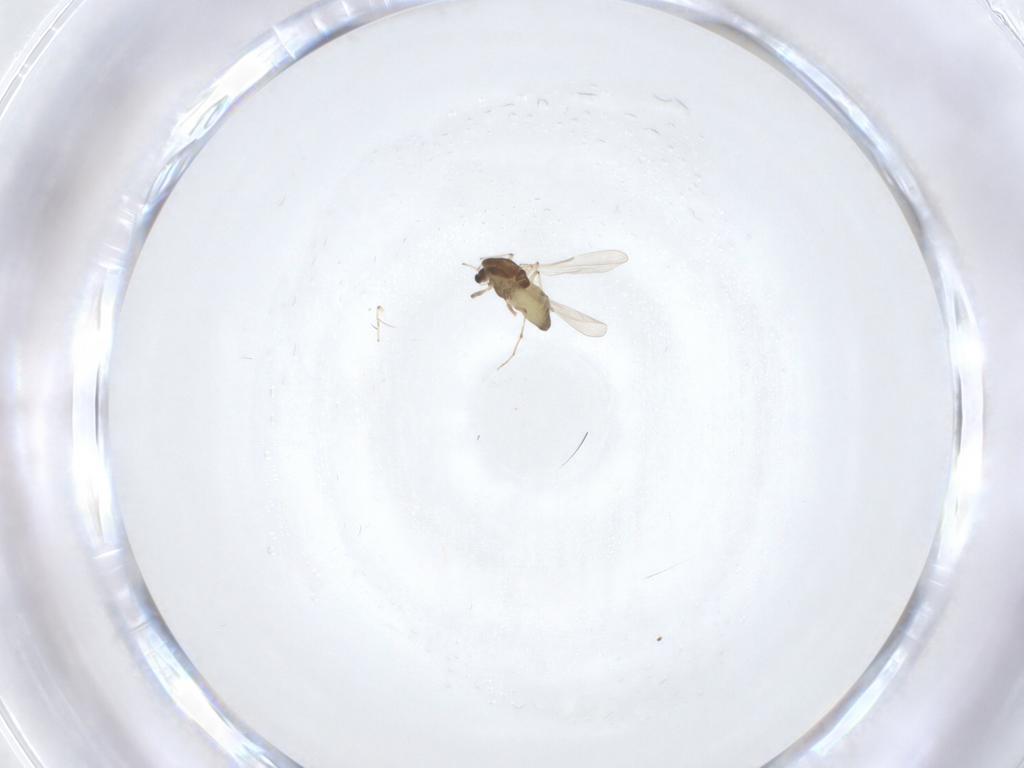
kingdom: Animalia
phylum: Arthropoda
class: Insecta
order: Diptera
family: Chironomidae
